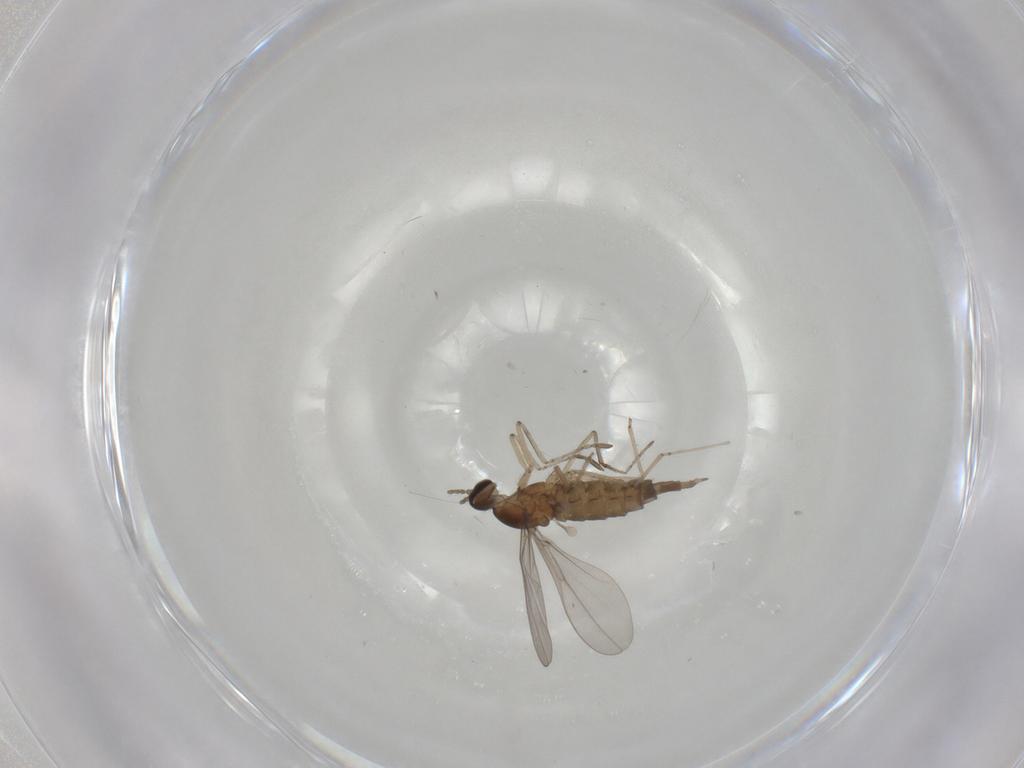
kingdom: Animalia
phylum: Arthropoda
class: Insecta
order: Diptera
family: Cecidomyiidae
